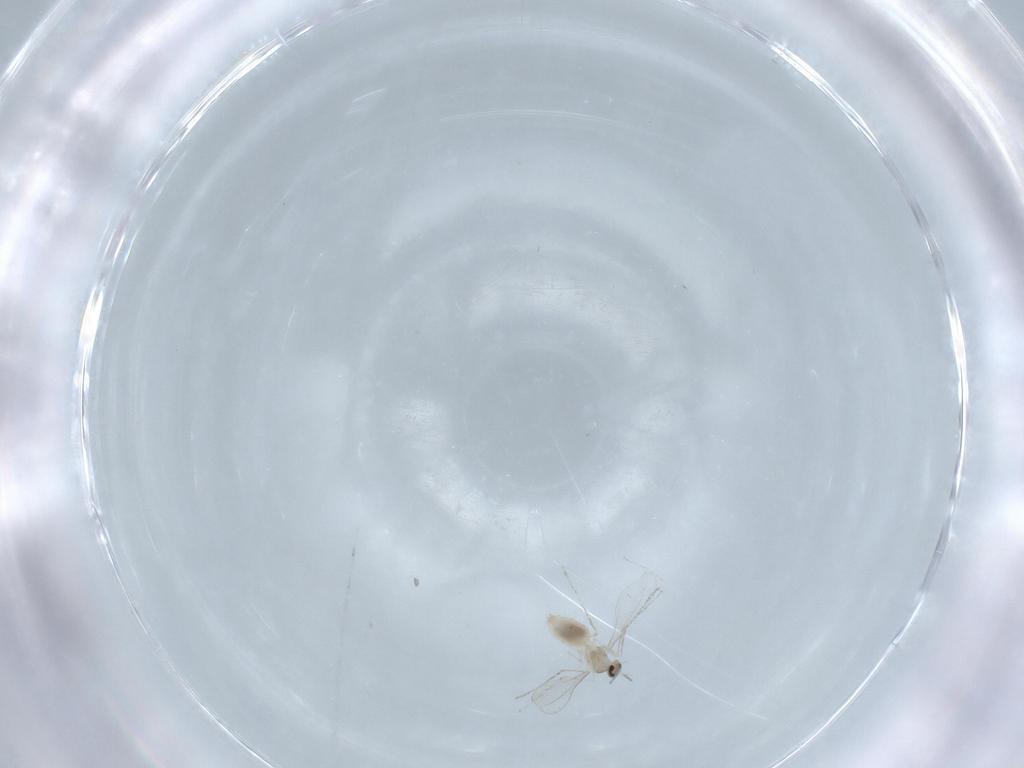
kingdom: Animalia
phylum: Arthropoda
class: Insecta
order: Diptera
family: Cecidomyiidae
